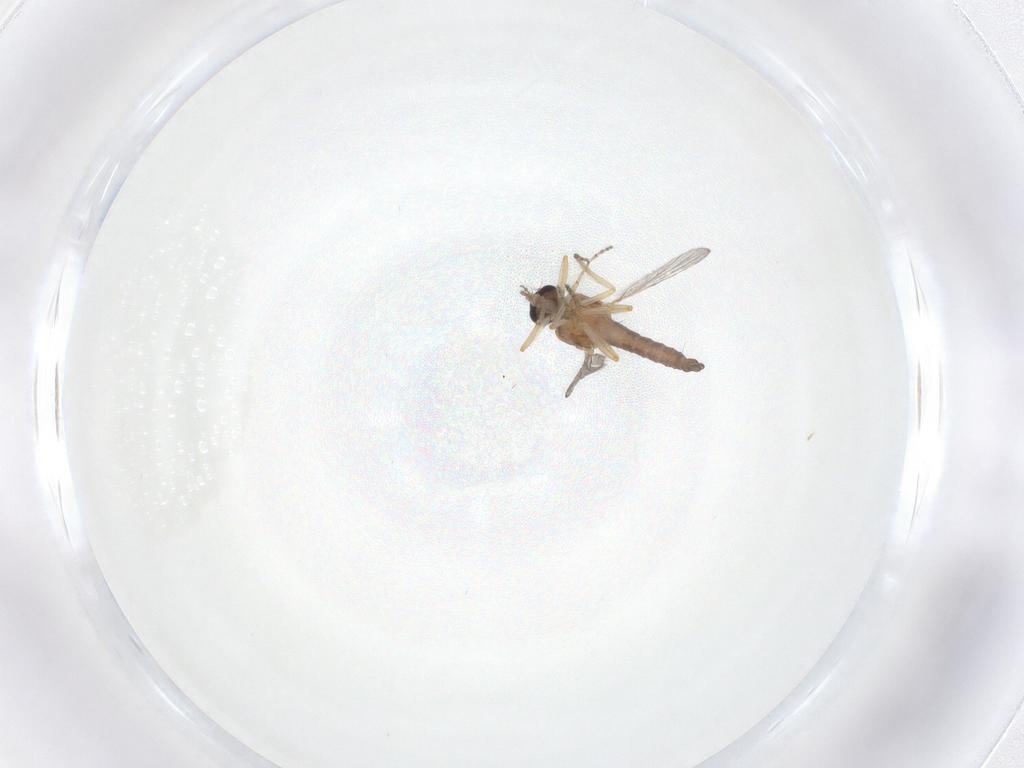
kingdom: Animalia
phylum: Arthropoda
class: Insecta
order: Diptera
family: Ceratopogonidae
